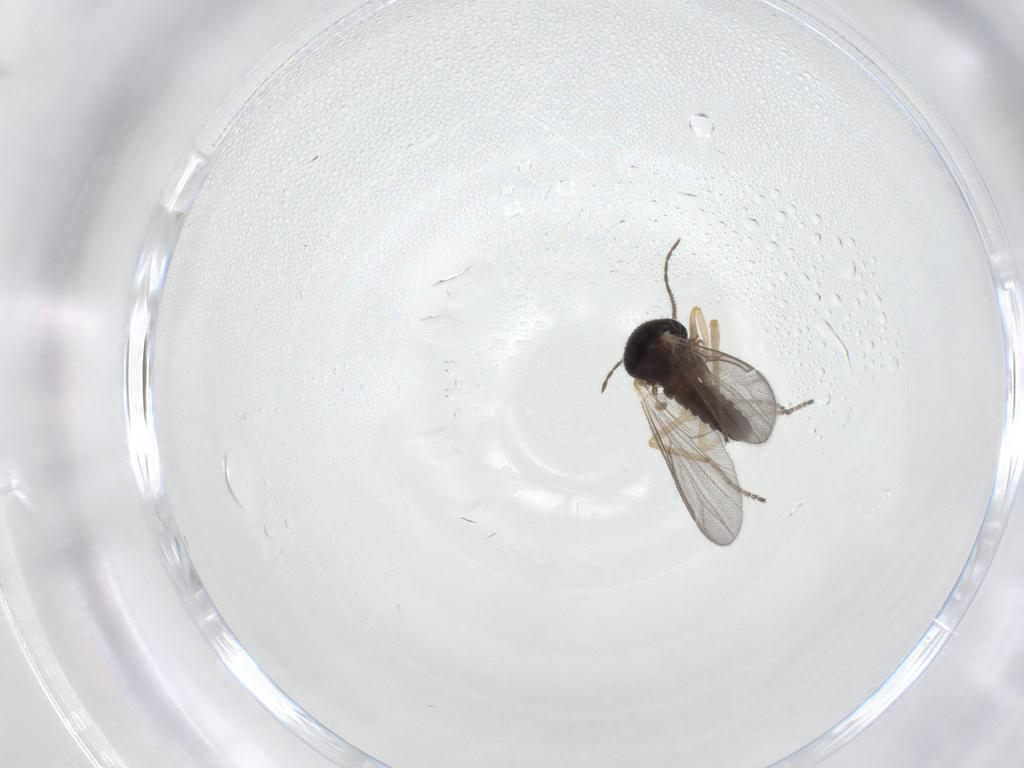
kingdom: Animalia
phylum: Arthropoda
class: Insecta
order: Diptera
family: Ceratopogonidae
